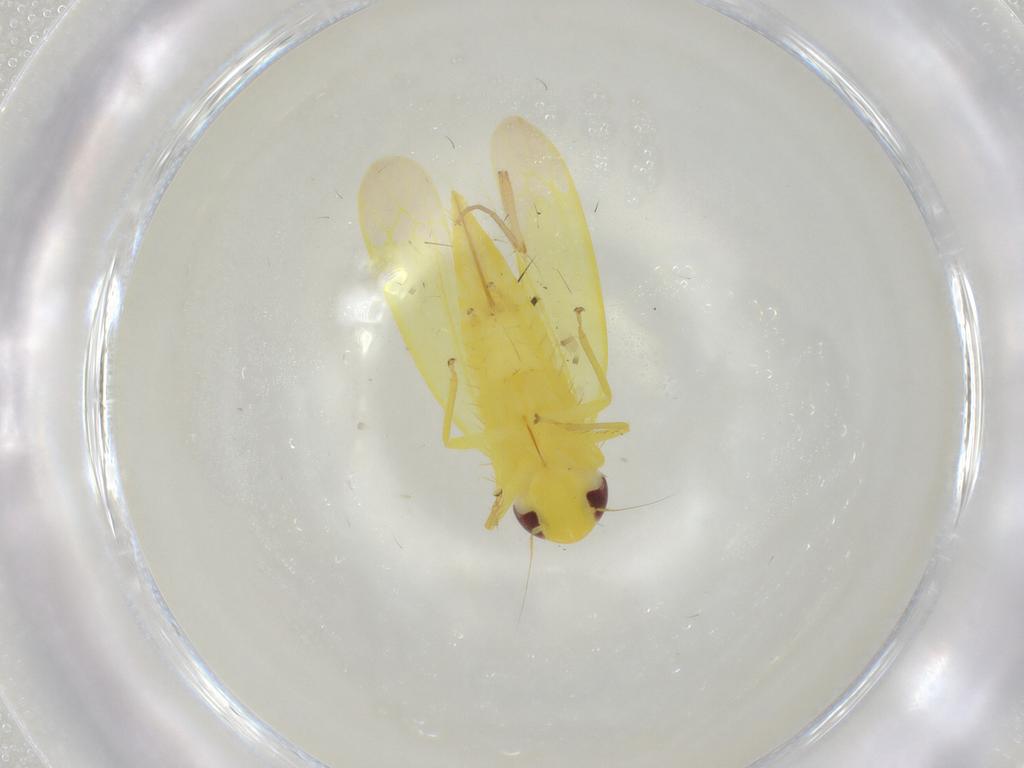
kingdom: Animalia
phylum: Arthropoda
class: Insecta
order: Hemiptera
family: Cicadellidae
